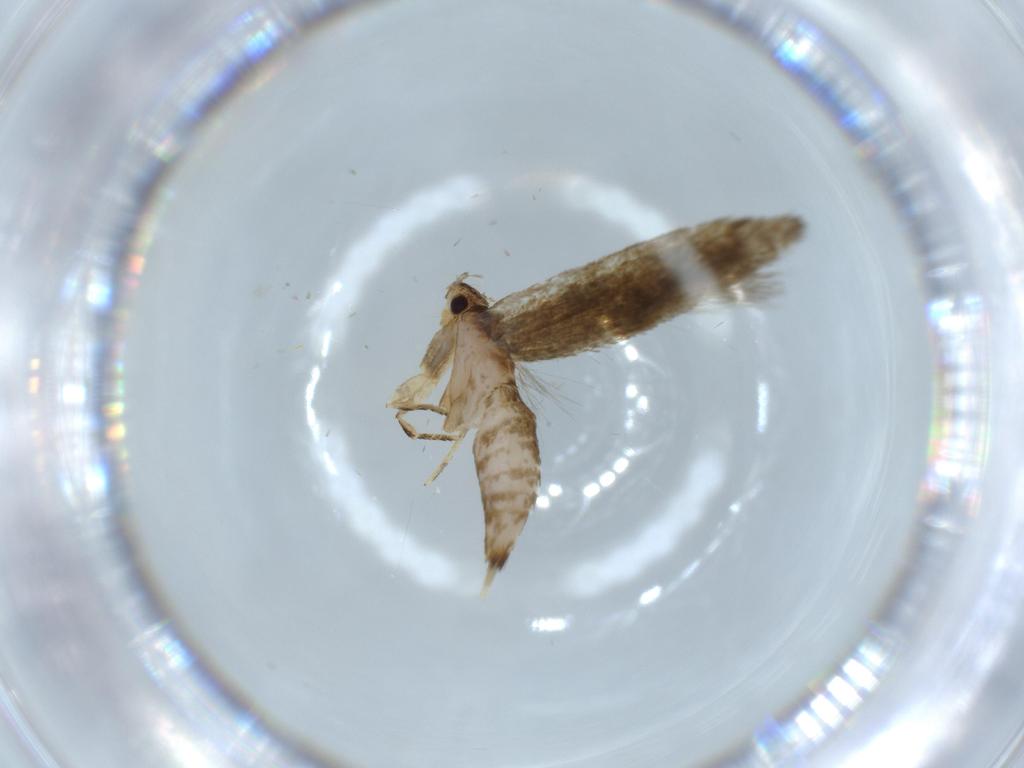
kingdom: Animalia
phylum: Arthropoda
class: Insecta
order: Lepidoptera
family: Tineidae
